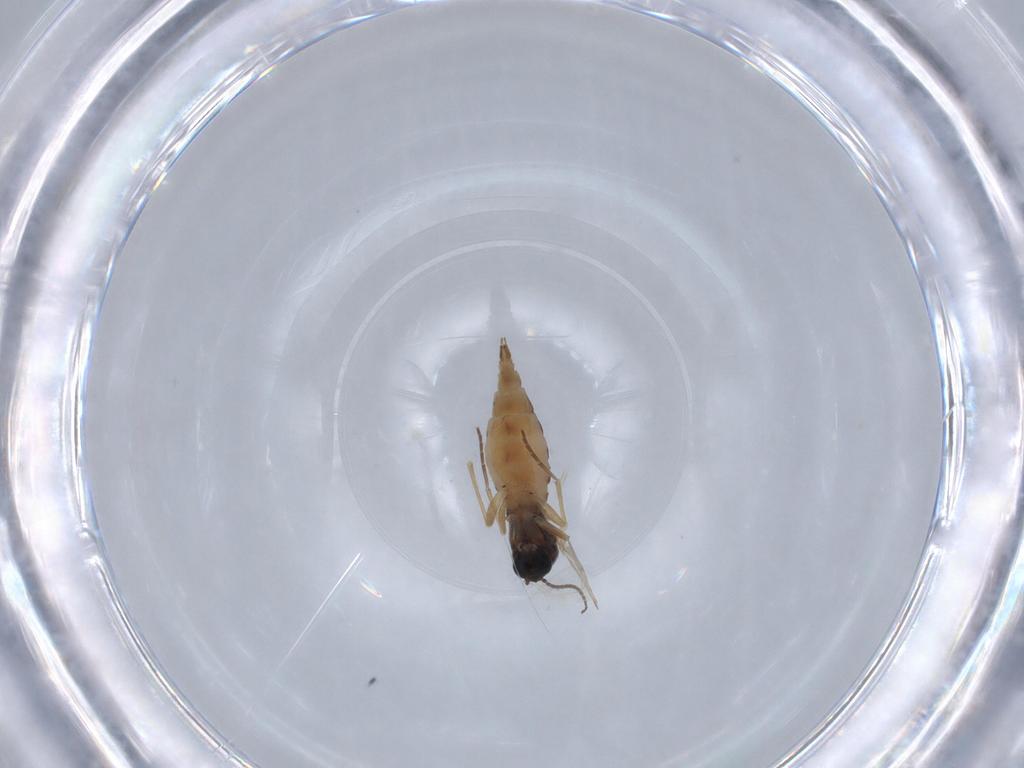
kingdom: Animalia
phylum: Arthropoda
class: Insecta
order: Diptera
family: Sciaridae
